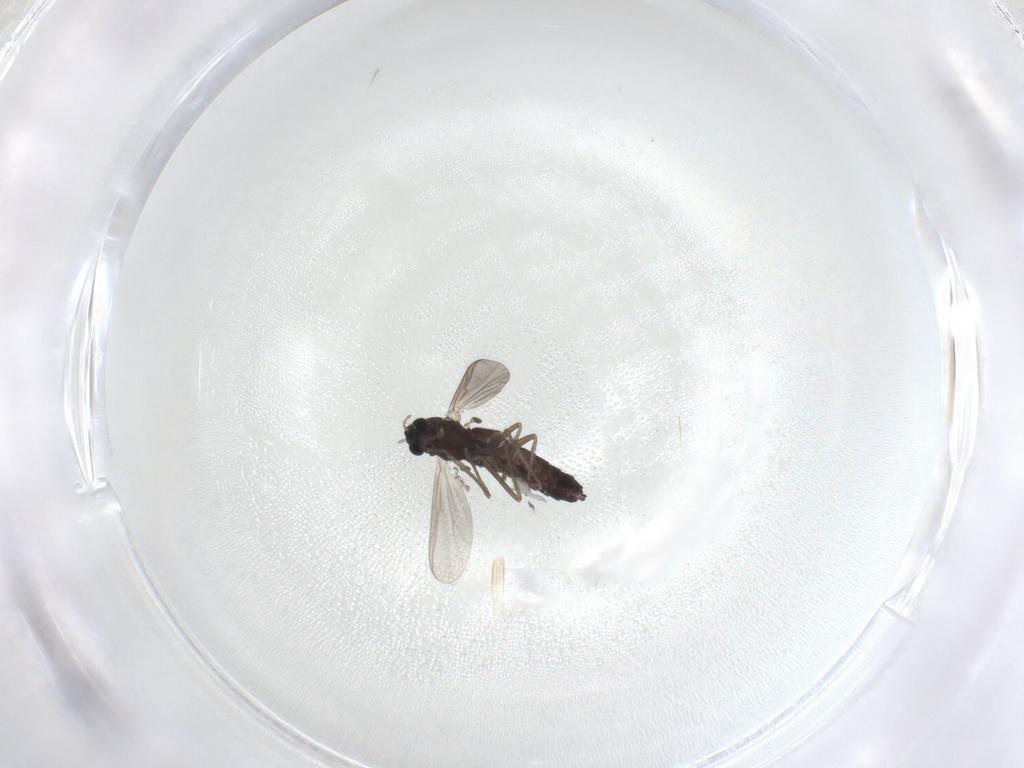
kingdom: Animalia
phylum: Arthropoda
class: Insecta
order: Diptera
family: Chironomidae
